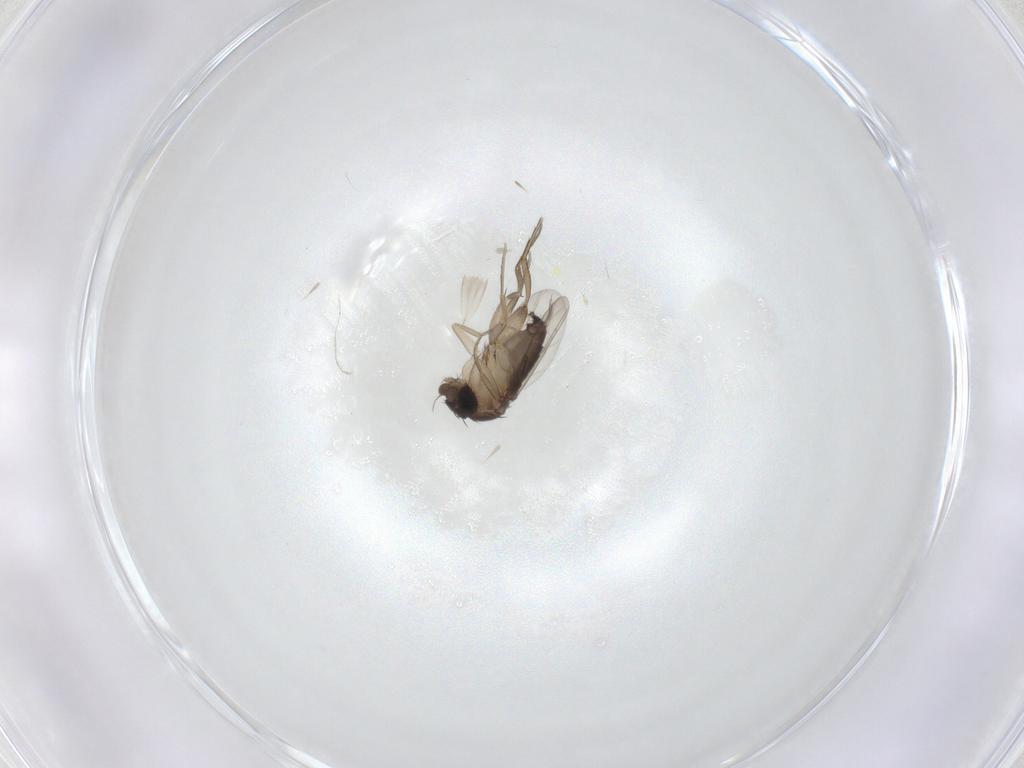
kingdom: Animalia
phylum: Arthropoda
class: Insecta
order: Diptera
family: Phoridae
